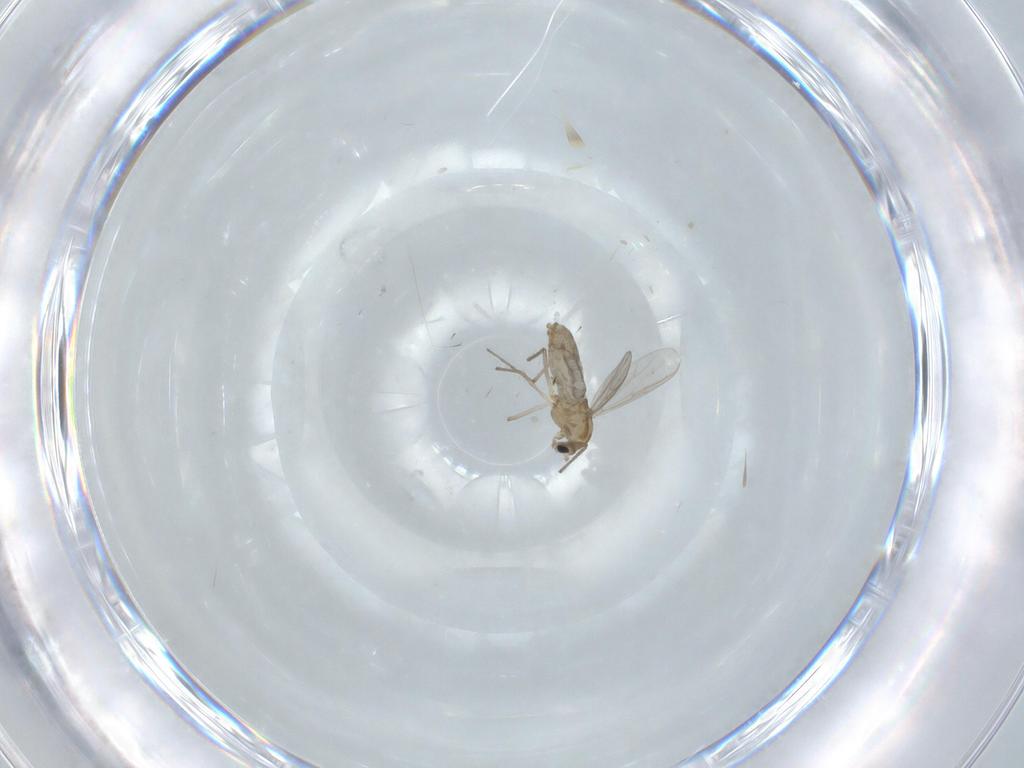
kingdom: Animalia
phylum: Arthropoda
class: Insecta
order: Diptera
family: Chironomidae
